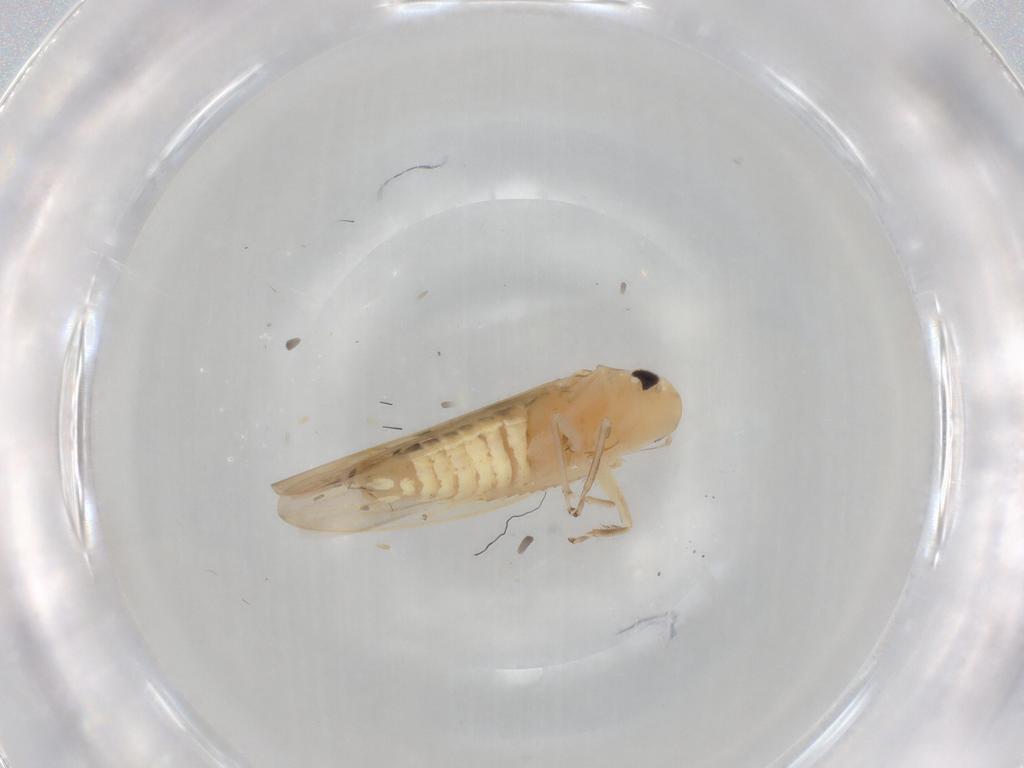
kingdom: Animalia
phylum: Arthropoda
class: Insecta
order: Hemiptera
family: Cicadellidae
